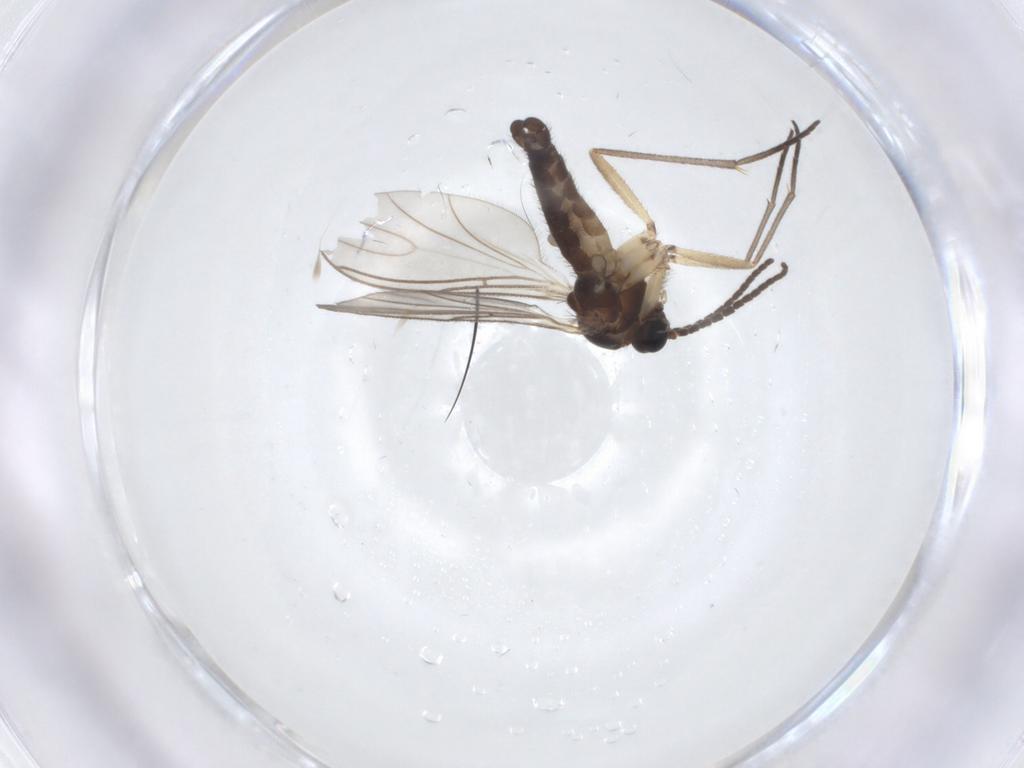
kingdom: Animalia
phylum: Arthropoda
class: Insecta
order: Diptera
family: Sciaridae
